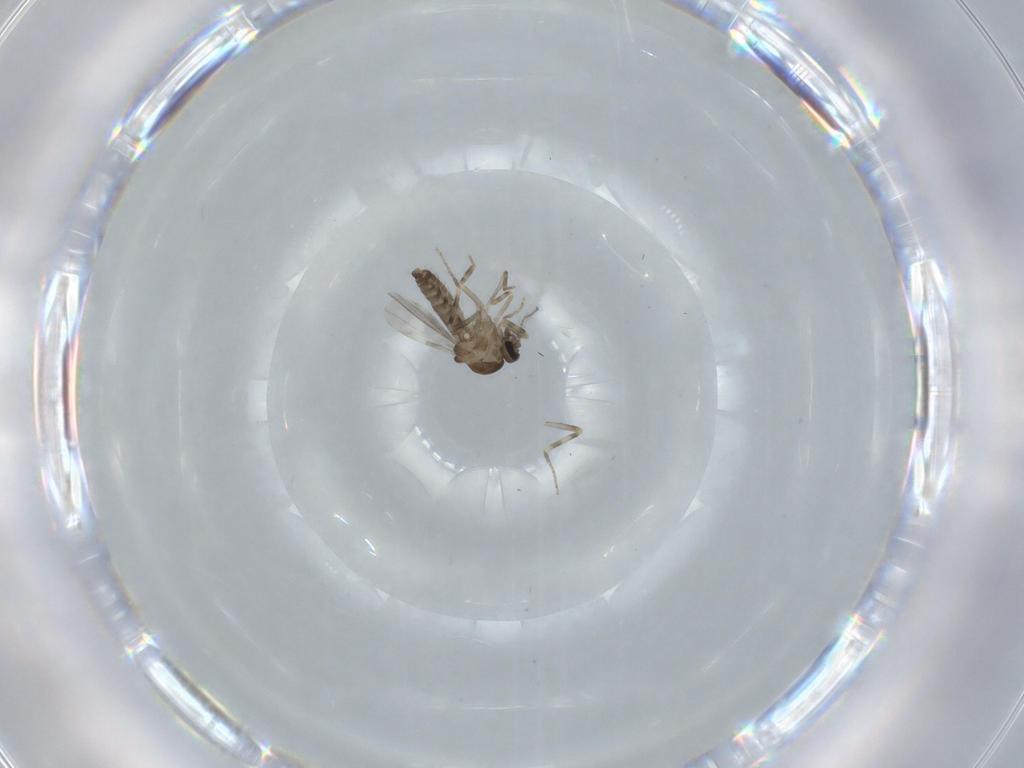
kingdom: Animalia
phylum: Arthropoda
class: Insecta
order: Diptera
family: Ceratopogonidae
